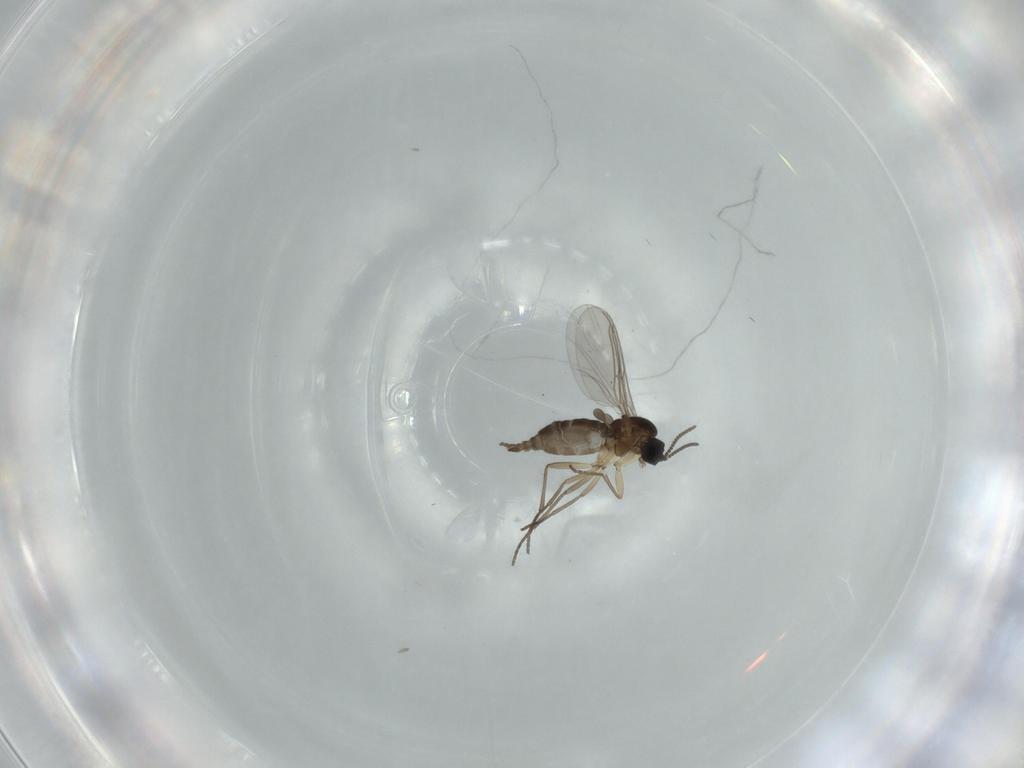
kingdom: Animalia
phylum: Arthropoda
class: Insecta
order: Diptera
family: Sciaridae
